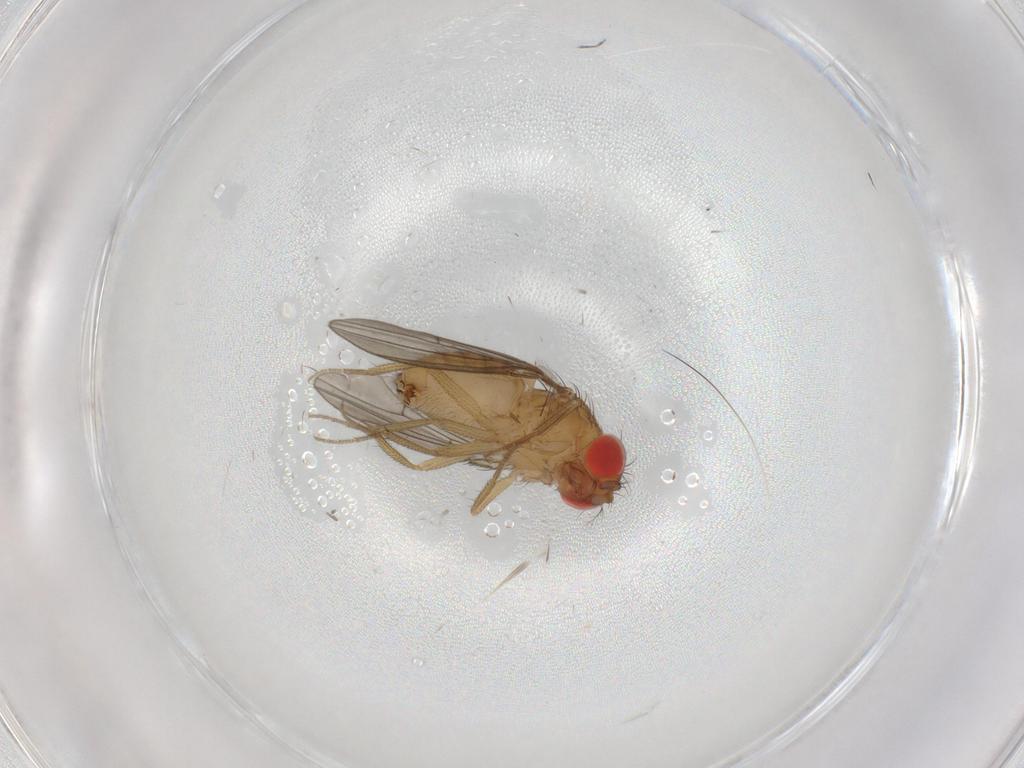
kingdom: Animalia
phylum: Arthropoda
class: Insecta
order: Diptera
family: Drosophilidae
